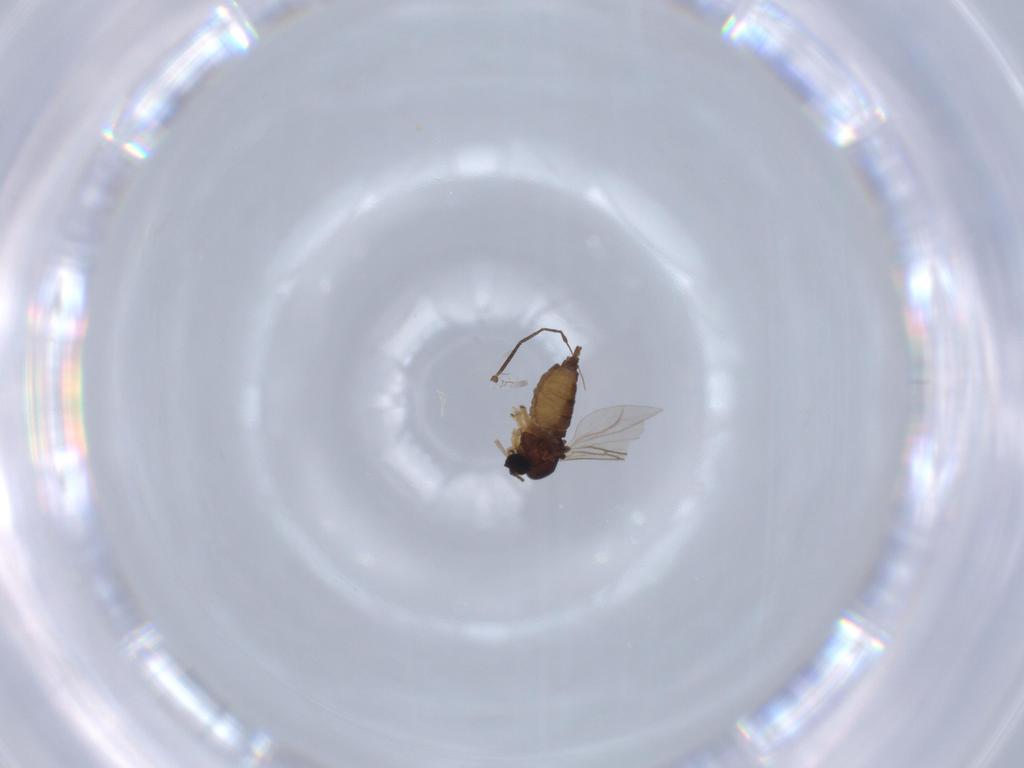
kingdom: Animalia
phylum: Arthropoda
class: Insecta
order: Diptera
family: Sciaridae
